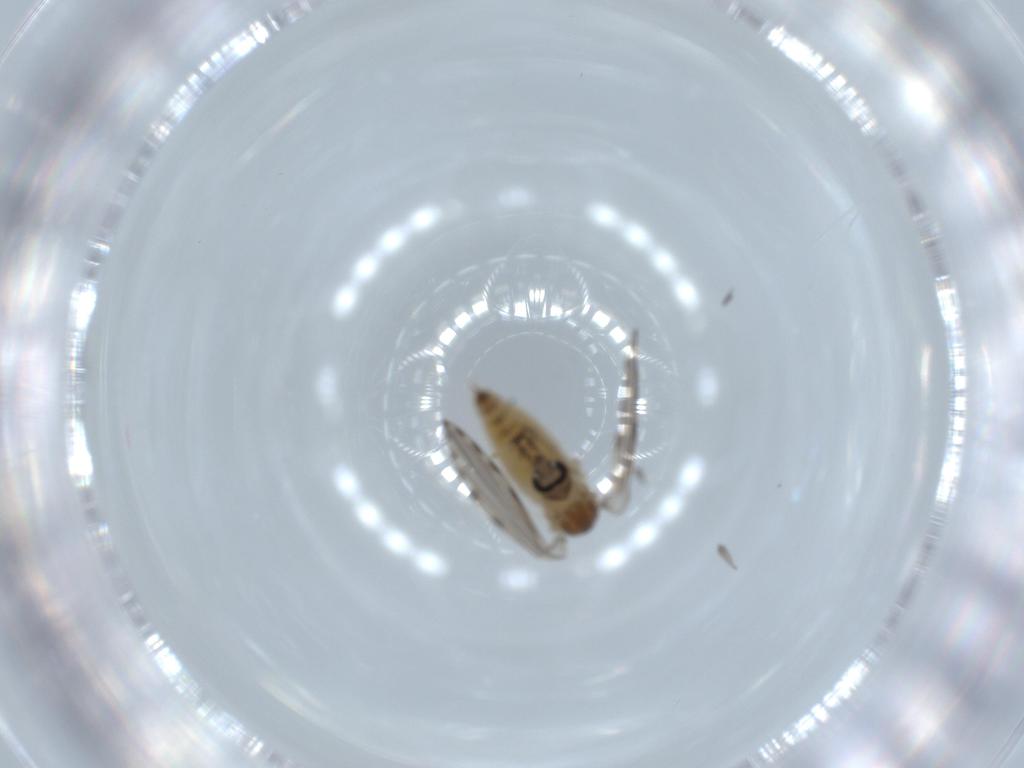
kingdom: Animalia
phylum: Arthropoda
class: Insecta
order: Diptera
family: Psychodidae
